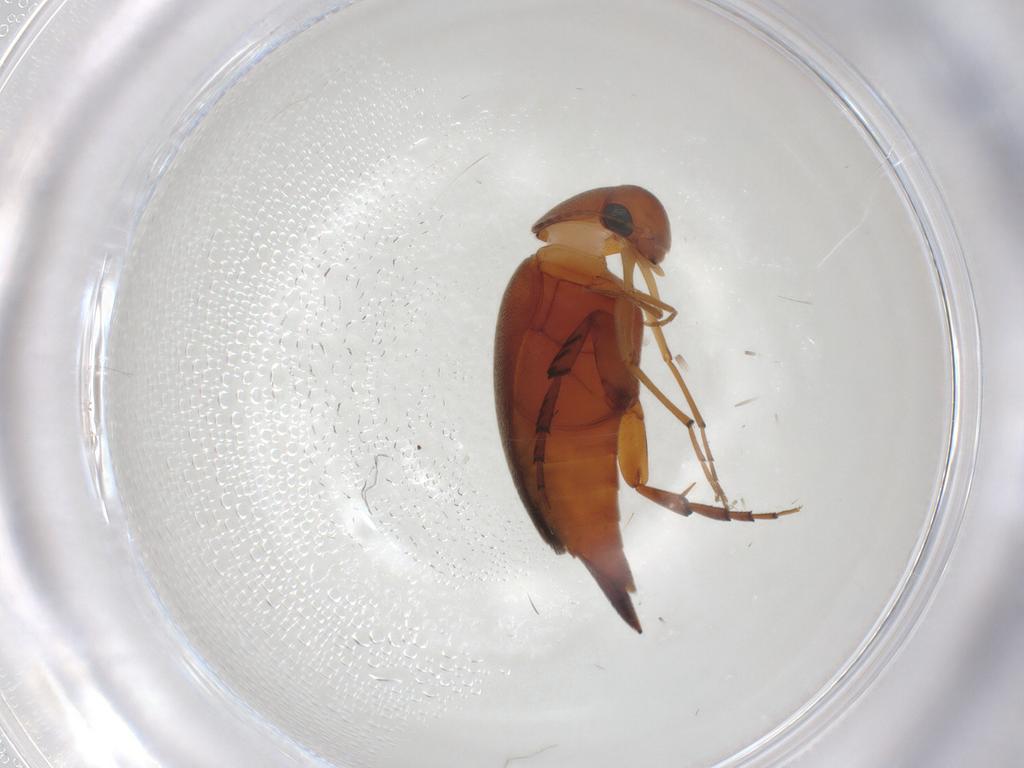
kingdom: Animalia
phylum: Arthropoda
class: Insecta
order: Coleoptera
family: Mordellidae
